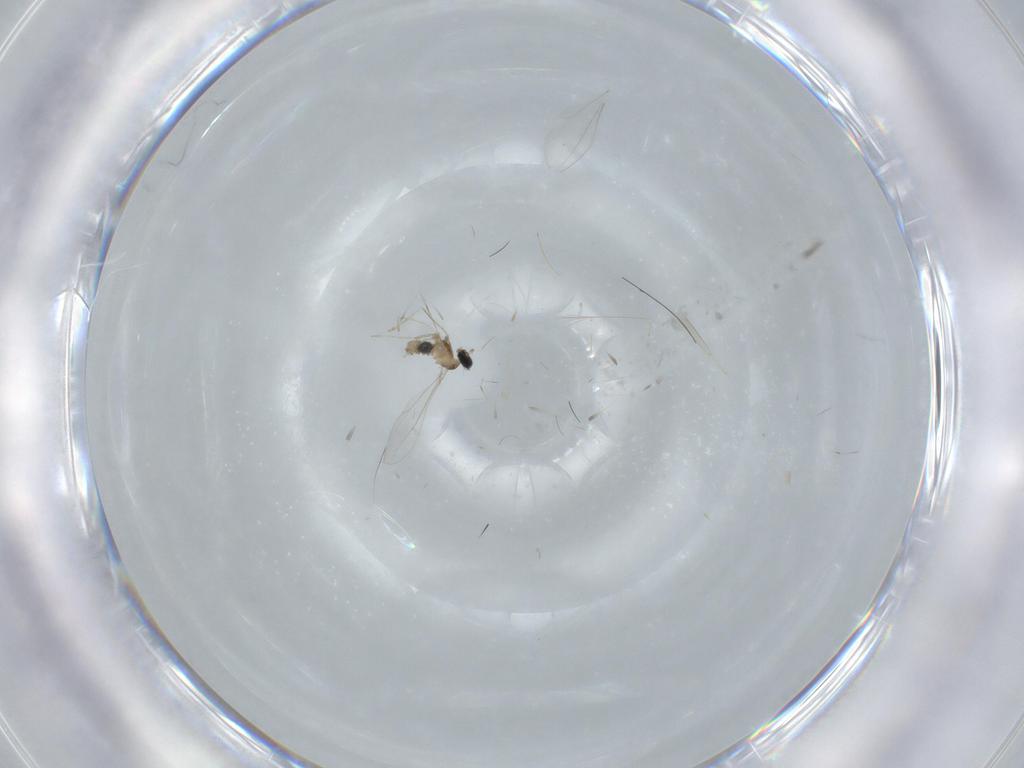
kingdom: Animalia
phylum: Arthropoda
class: Insecta
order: Diptera
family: Cecidomyiidae
